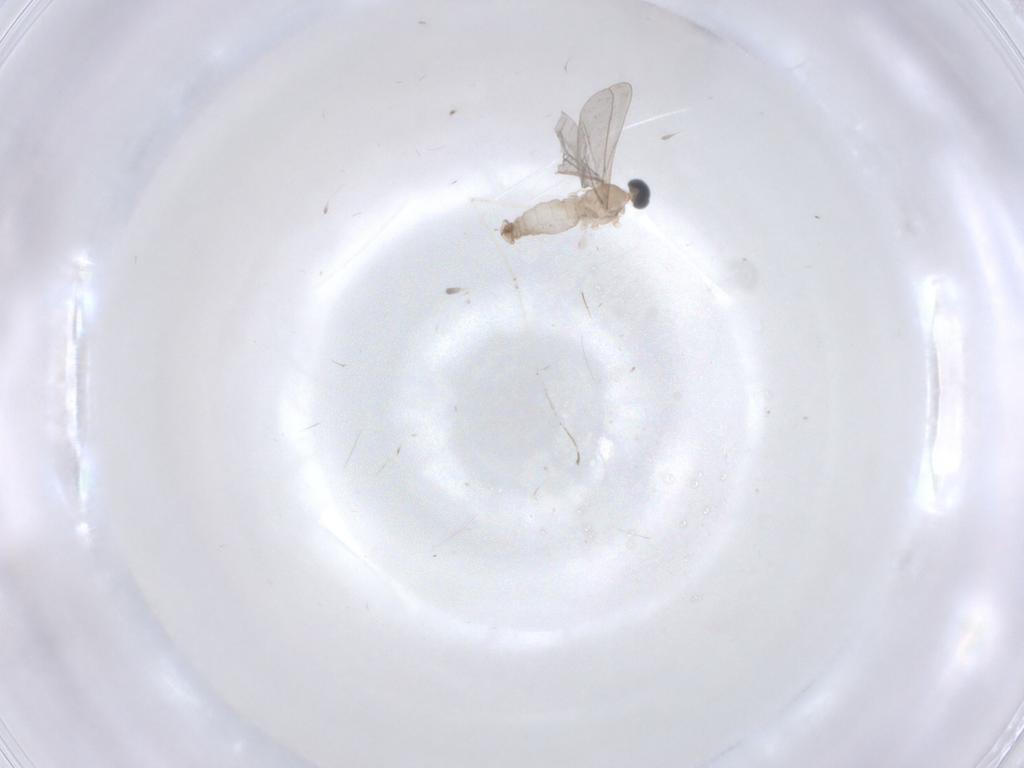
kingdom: Animalia
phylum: Arthropoda
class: Insecta
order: Diptera
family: Cecidomyiidae
